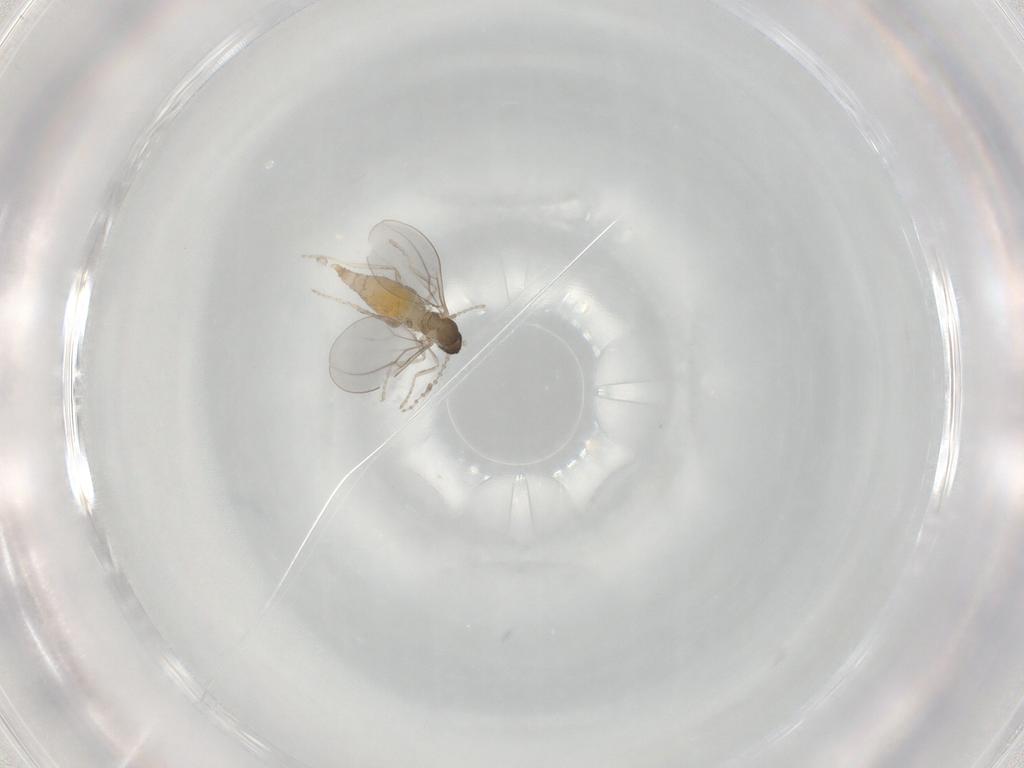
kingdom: Animalia
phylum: Arthropoda
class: Insecta
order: Diptera
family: Cecidomyiidae
